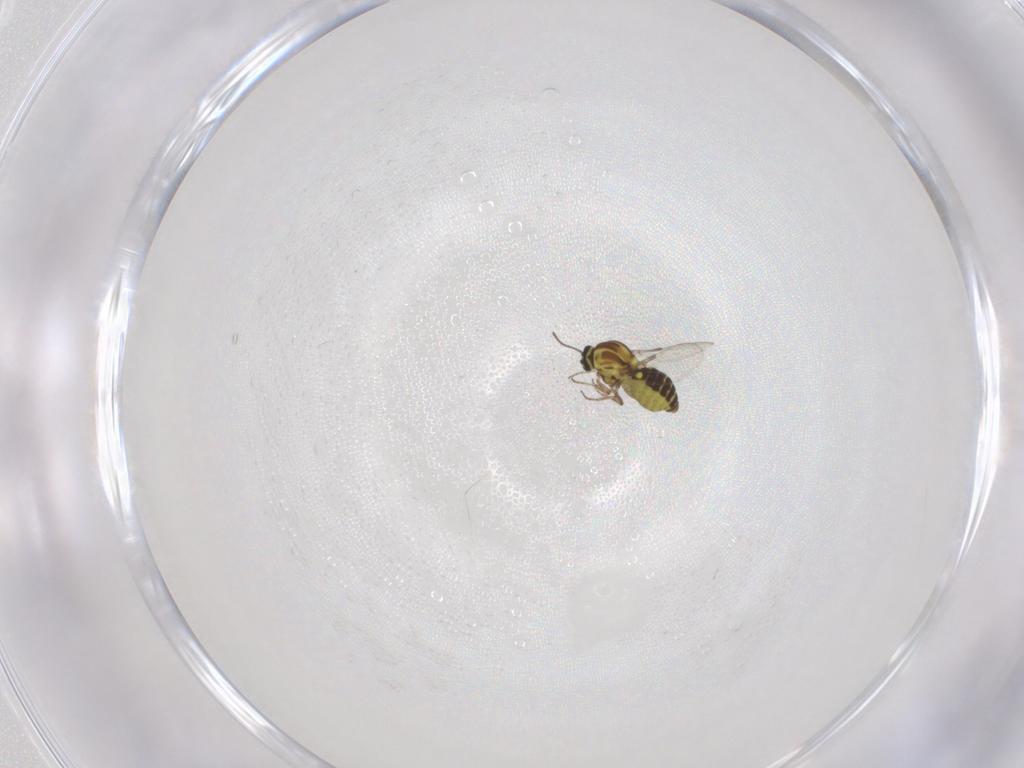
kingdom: Animalia
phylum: Arthropoda
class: Insecta
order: Diptera
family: Ceratopogonidae
